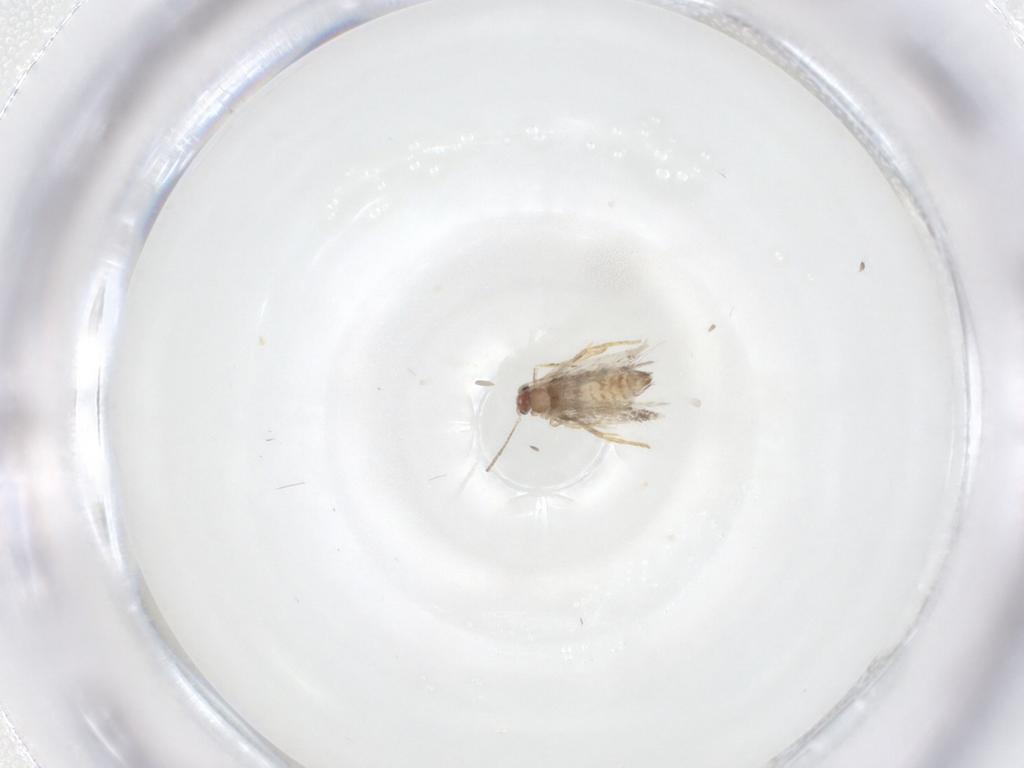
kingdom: Animalia
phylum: Arthropoda
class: Insecta
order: Lepidoptera
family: Nepticulidae
